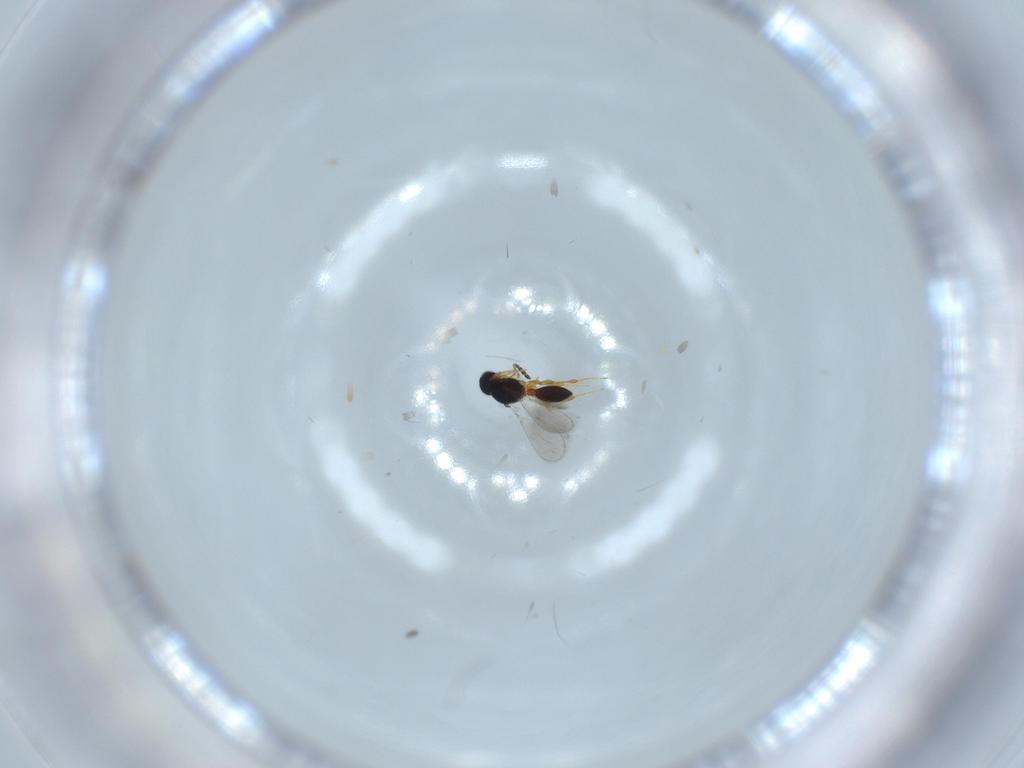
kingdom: Animalia
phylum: Arthropoda
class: Insecta
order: Hymenoptera
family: Platygastridae
